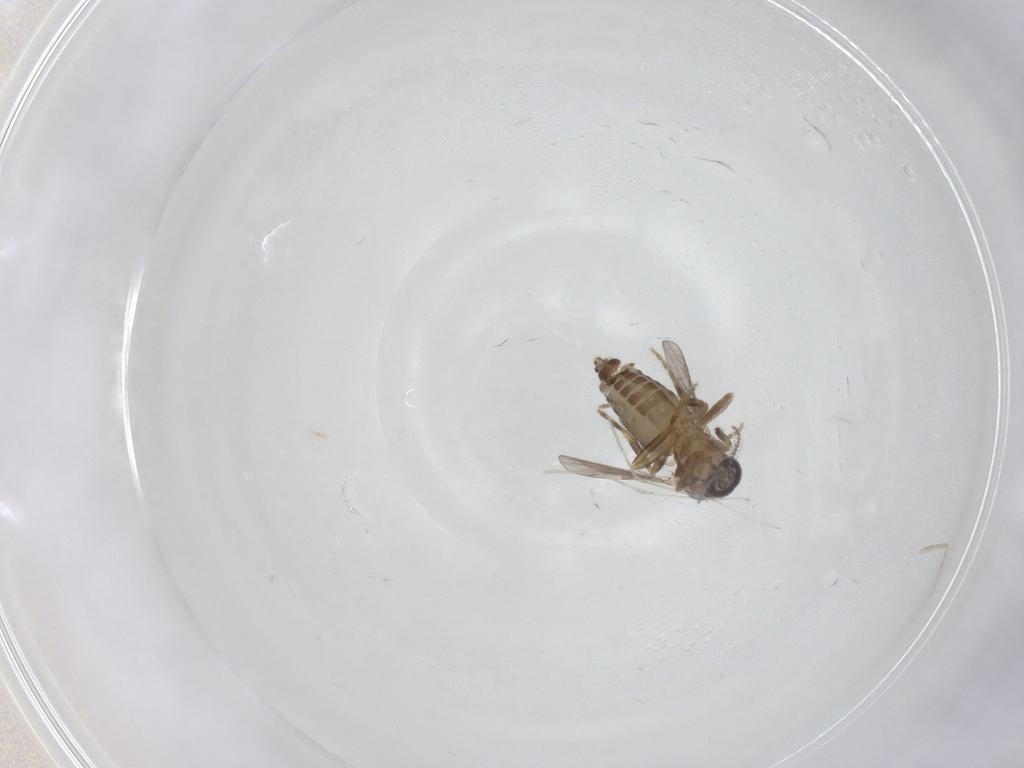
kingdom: Animalia
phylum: Arthropoda
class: Insecta
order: Diptera
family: Ceratopogonidae
